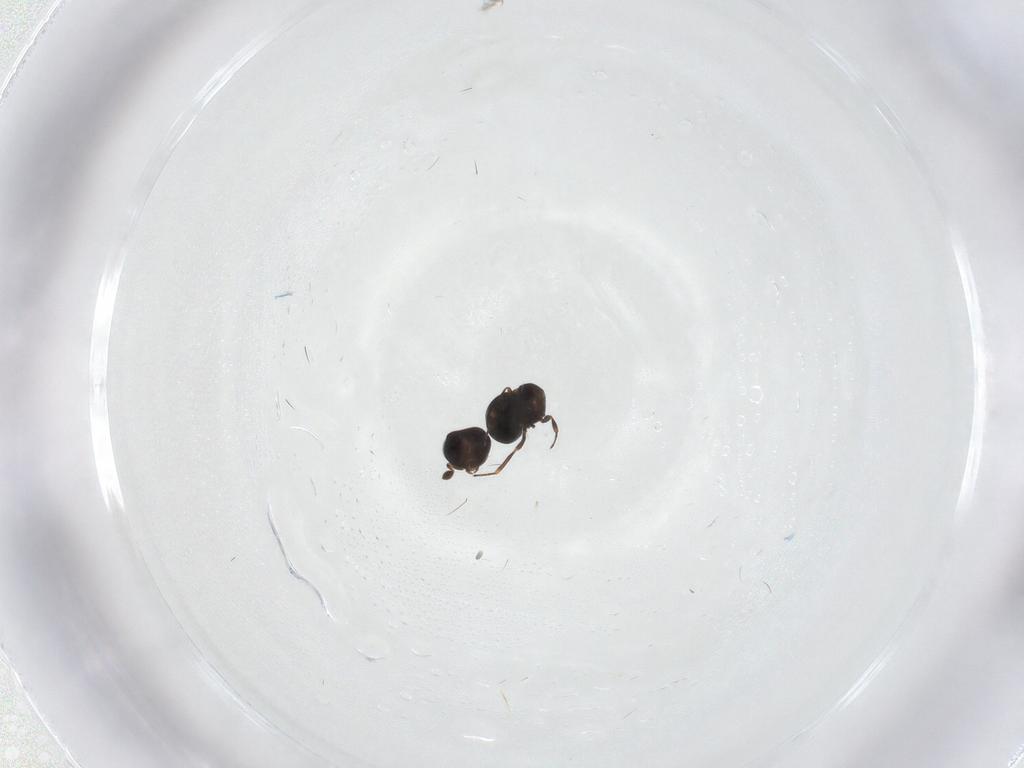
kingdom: Animalia
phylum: Arthropoda
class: Insecta
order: Hymenoptera
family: Scelionidae
